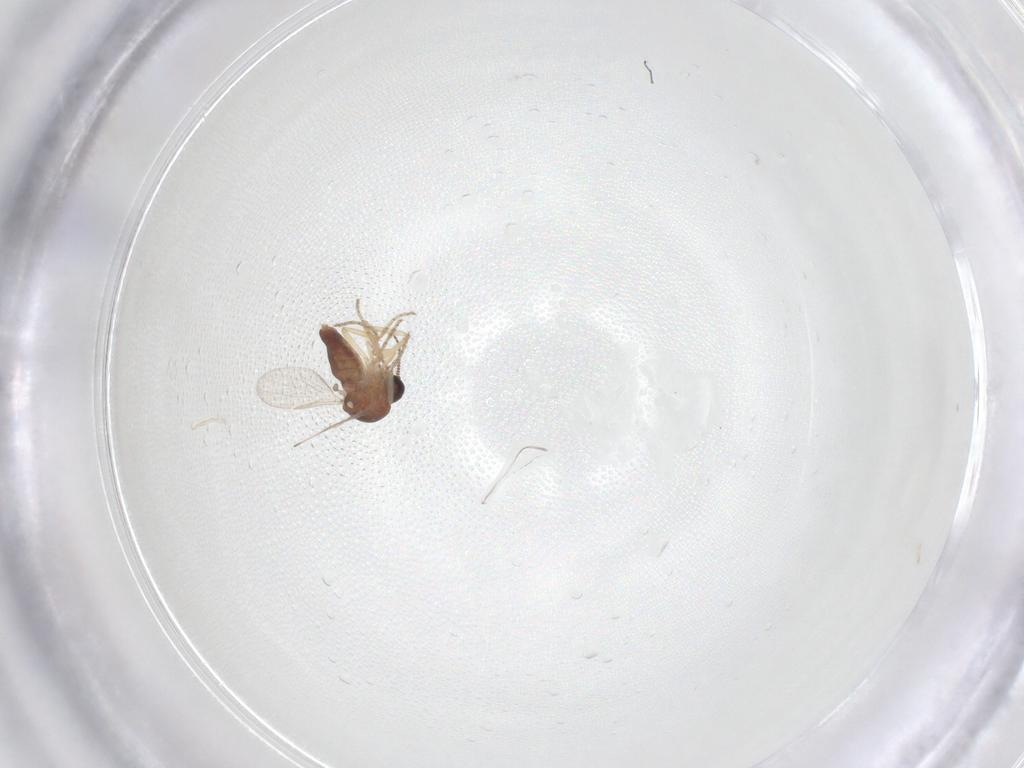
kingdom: Animalia
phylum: Arthropoda
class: Insecta
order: Diptera
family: Ceratopogonidae
